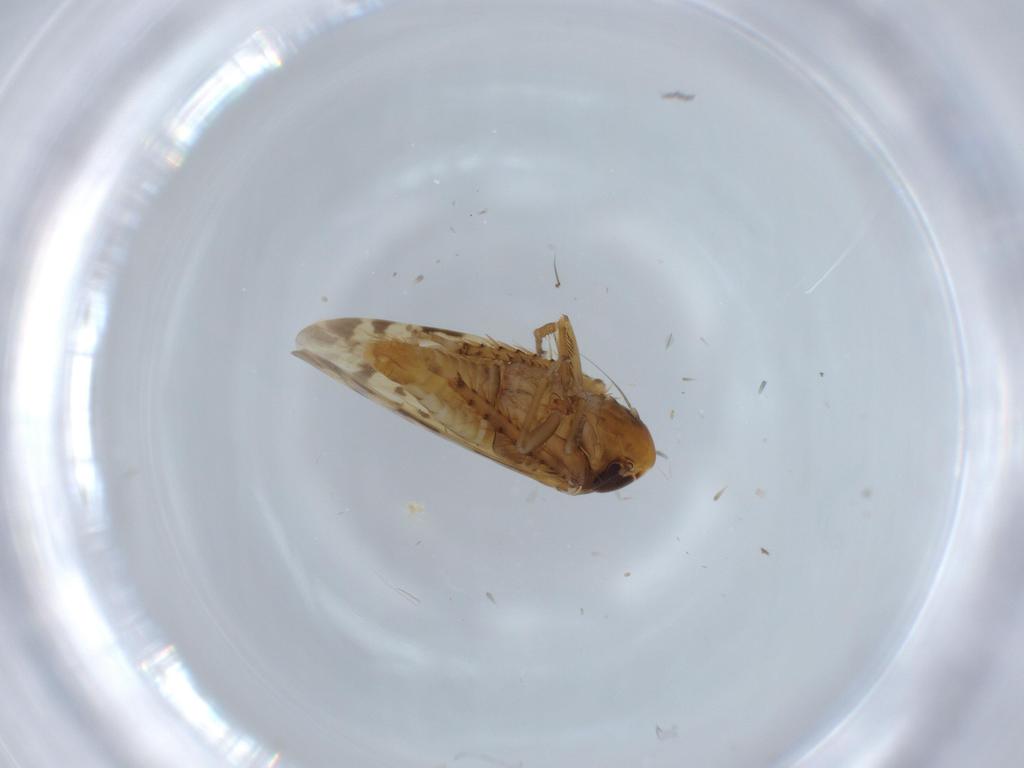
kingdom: Animalia
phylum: Arthropoda
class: Insecta
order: Hemiptera
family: Cicadellidae
